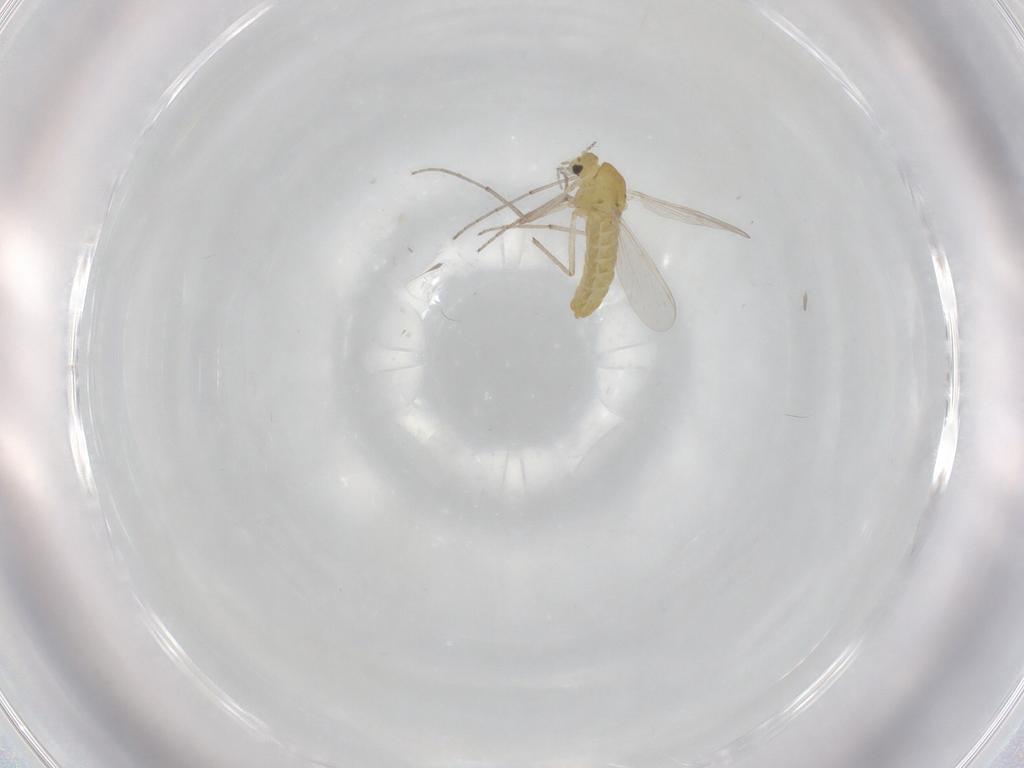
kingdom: Animalia
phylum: Arthropoda
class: Insecta
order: Diptera
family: Chironomidae
